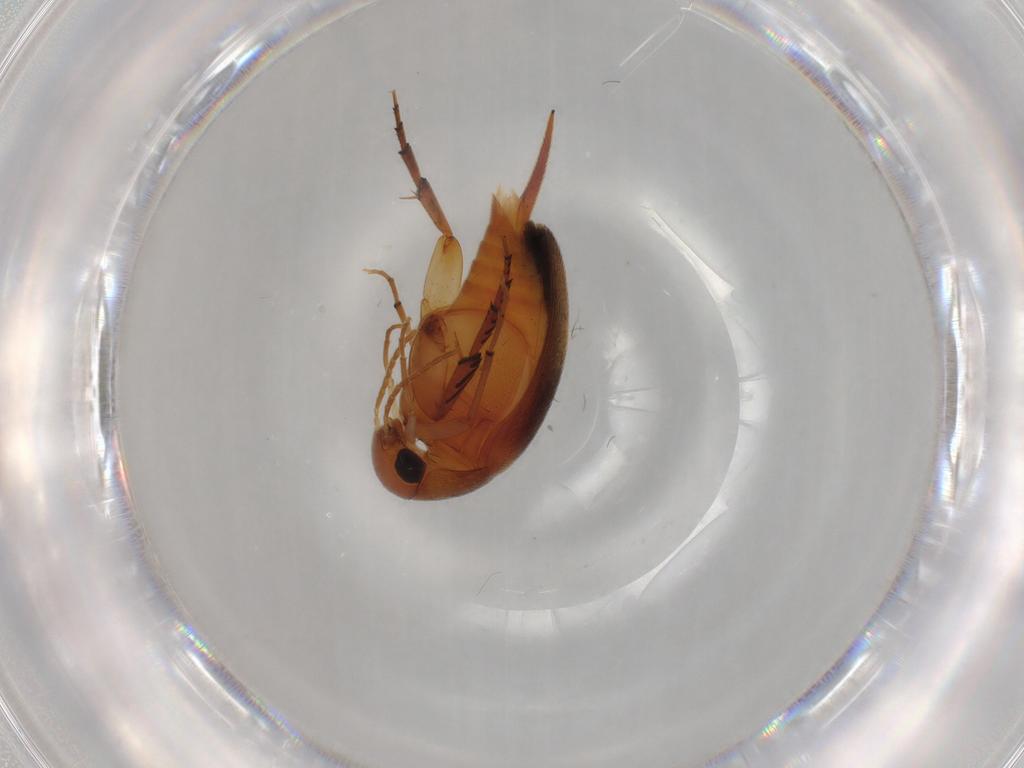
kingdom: Animalia
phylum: Arthropoda
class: Insecta
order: Coleoptera
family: Mordellidae
